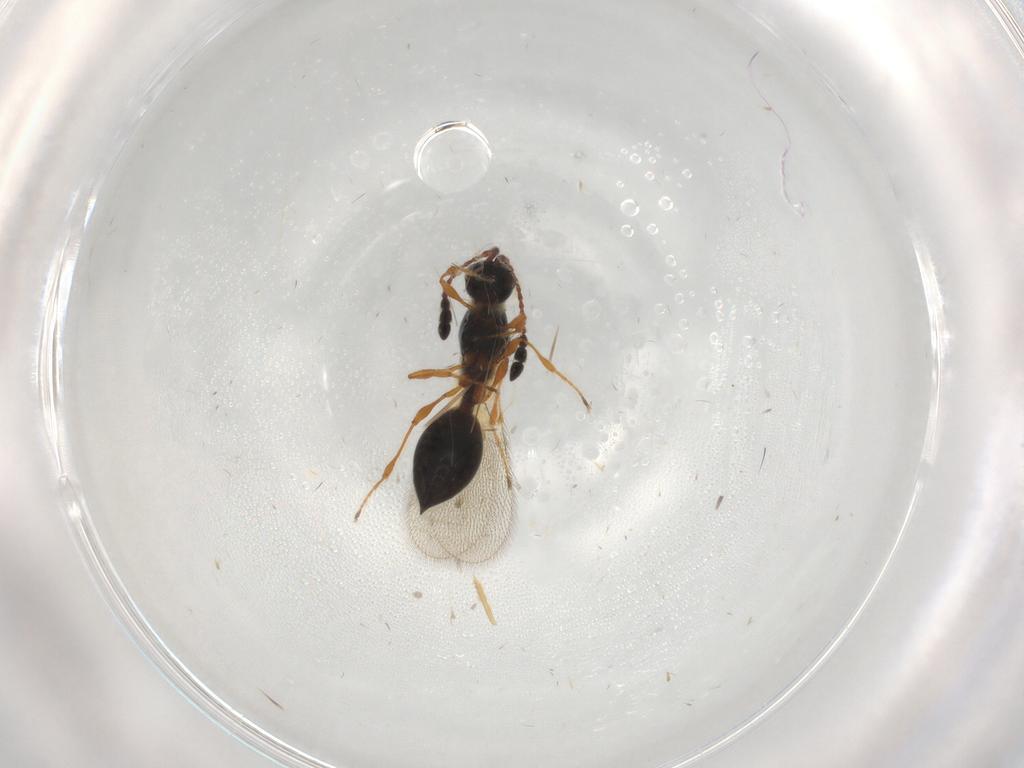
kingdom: Animalia
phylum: Arthropoda
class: Insecta
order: Hymenoptera
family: Diapriidae
